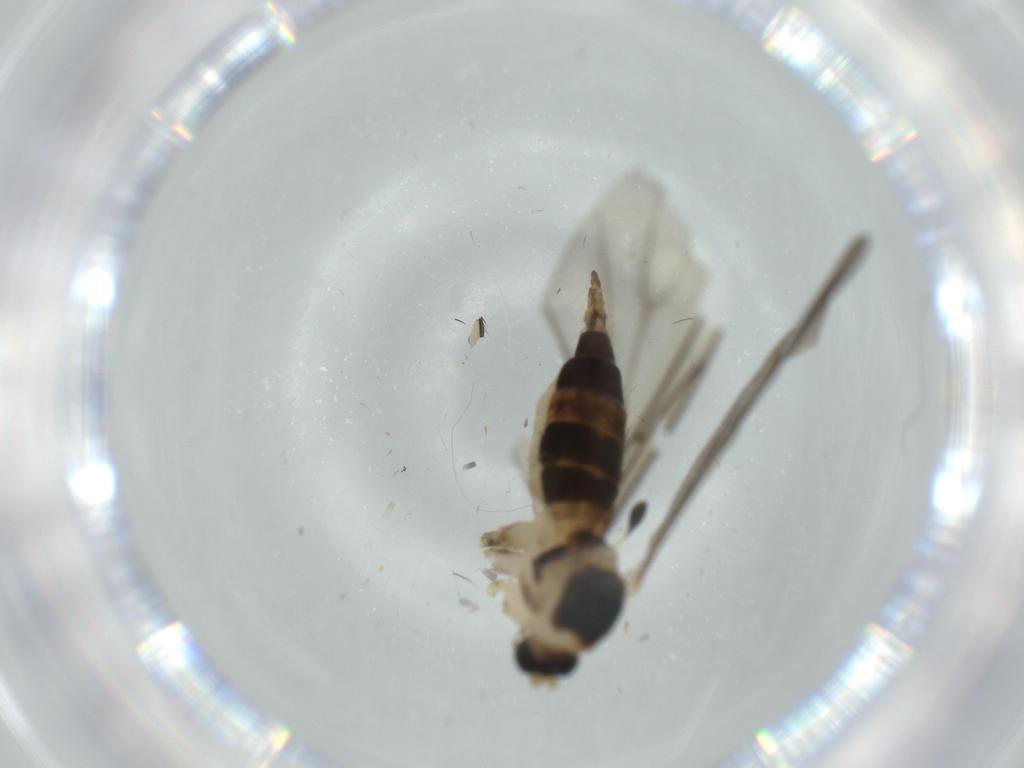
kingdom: Animalia
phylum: Arthropoda
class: Insecta
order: Diptera
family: Sciaridae
